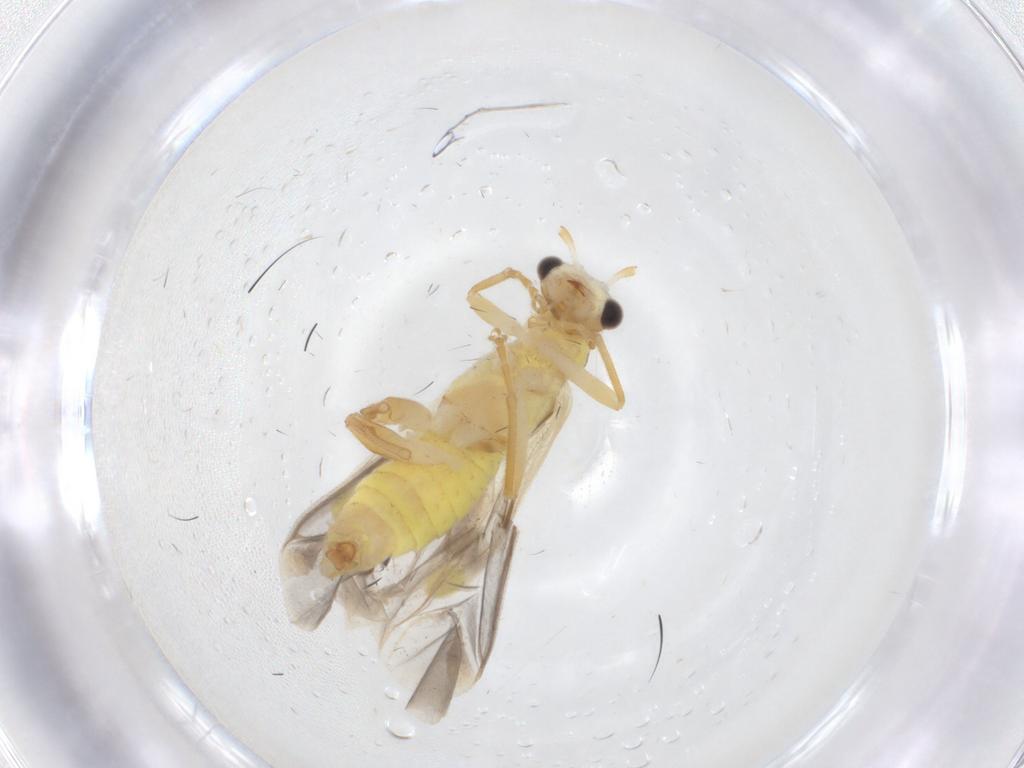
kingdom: Animalia
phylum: Arthropoda
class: Insecta
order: Coleoptera
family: Cantharidae
